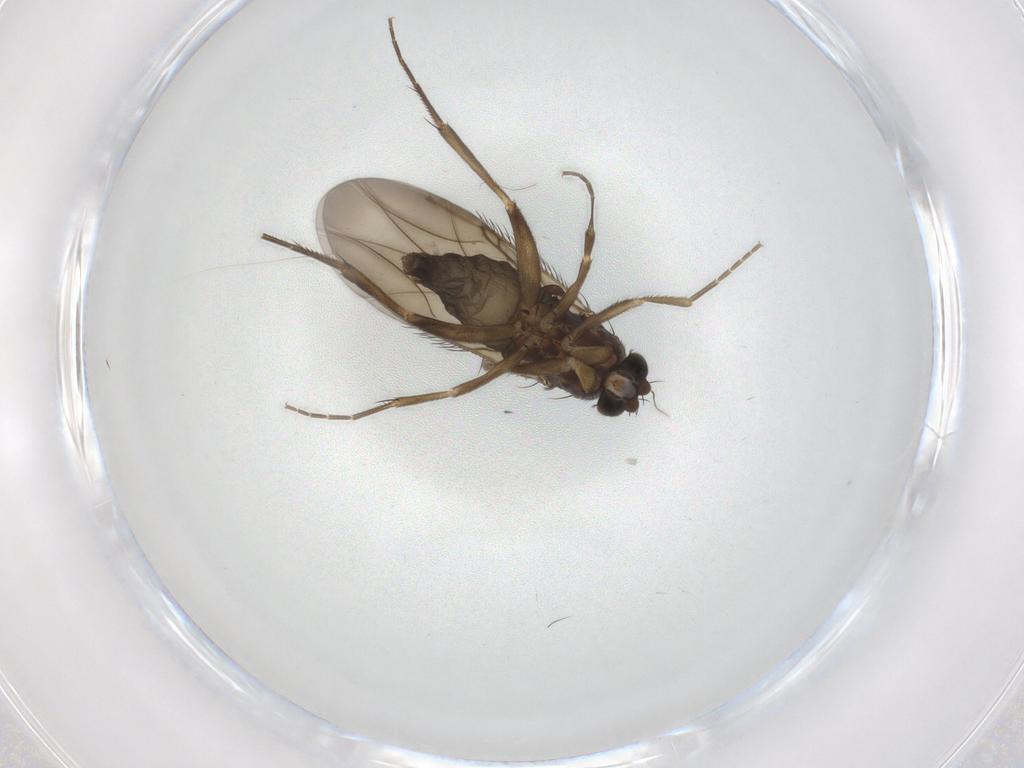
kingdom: Animalia
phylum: Arthropoda
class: Insecta
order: Diptera
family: Phoridae
